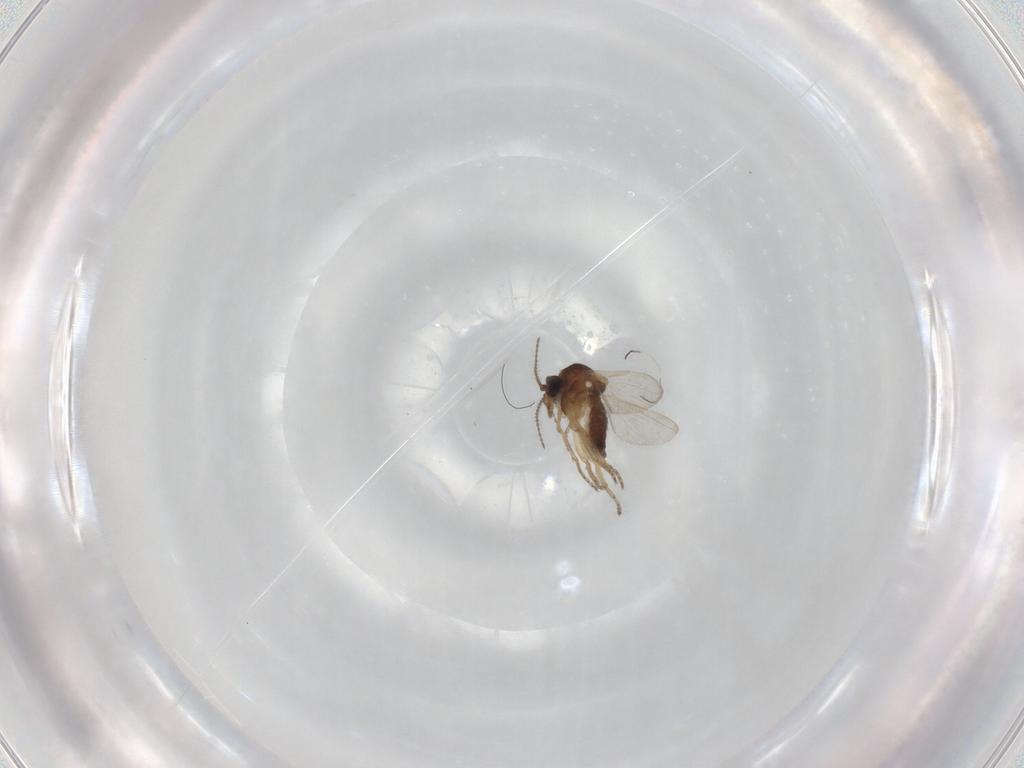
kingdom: Animalia
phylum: Arthropoda
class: Insecta
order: Diptera
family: Ceratopogonidae
